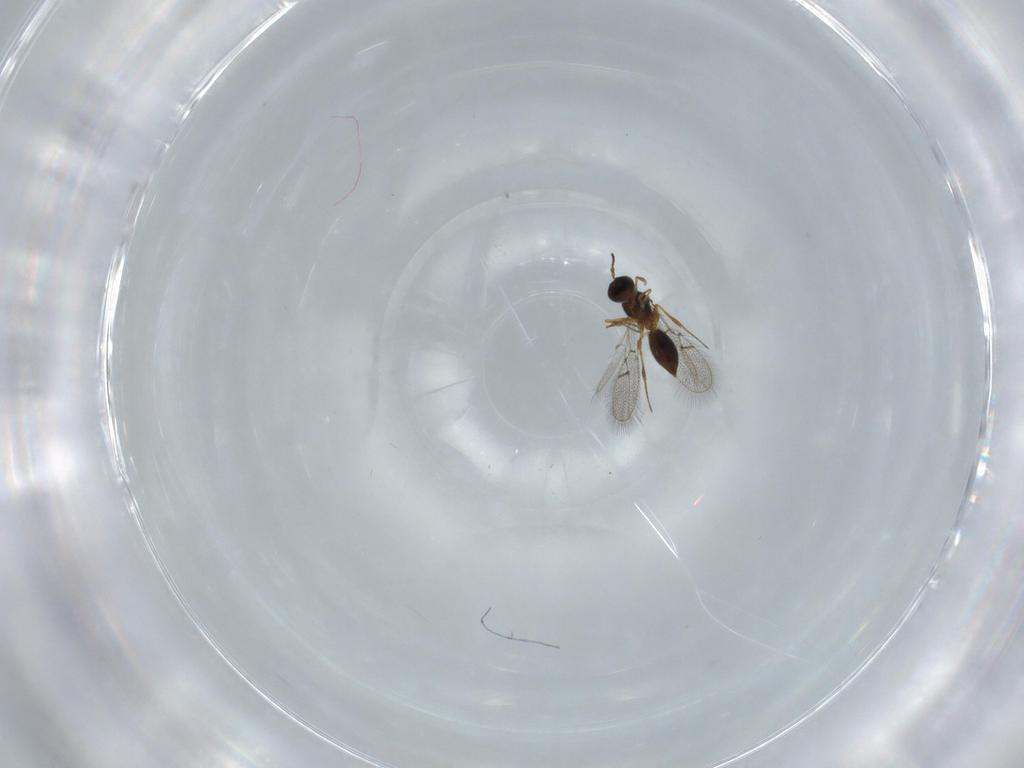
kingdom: Animalia
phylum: Arthropoda
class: Insecta
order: Hymenoptera
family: Figitidae
